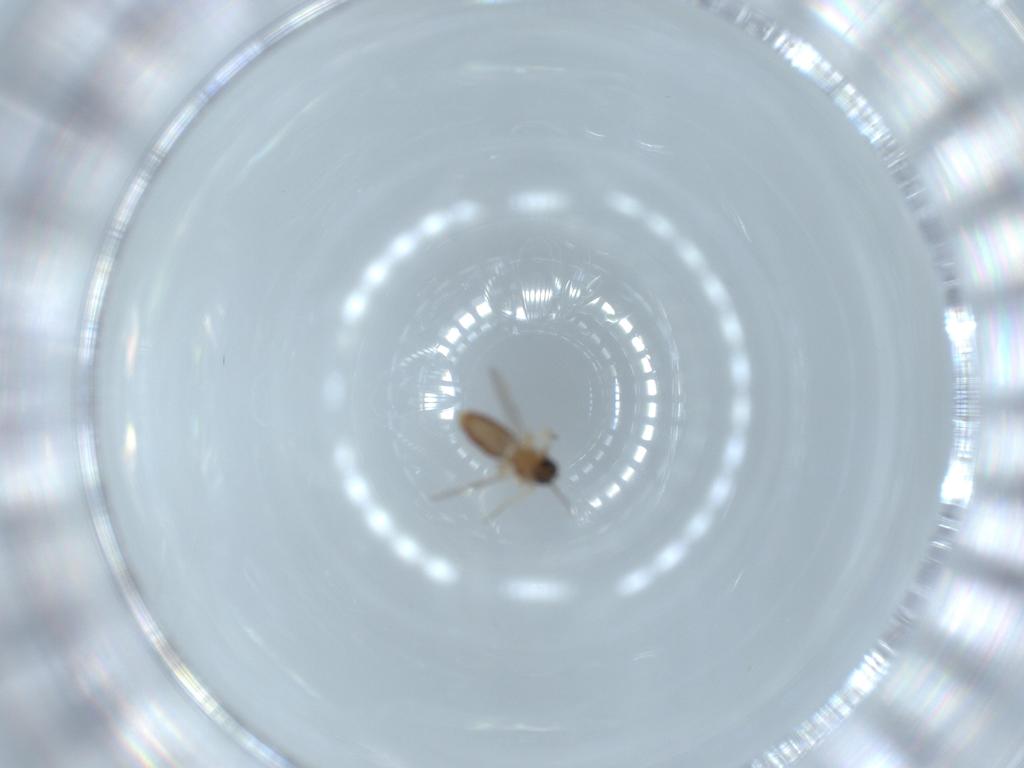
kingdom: Animalia
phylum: Arthropoda
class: Insecta
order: Diptera
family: Ceratopogonidae
